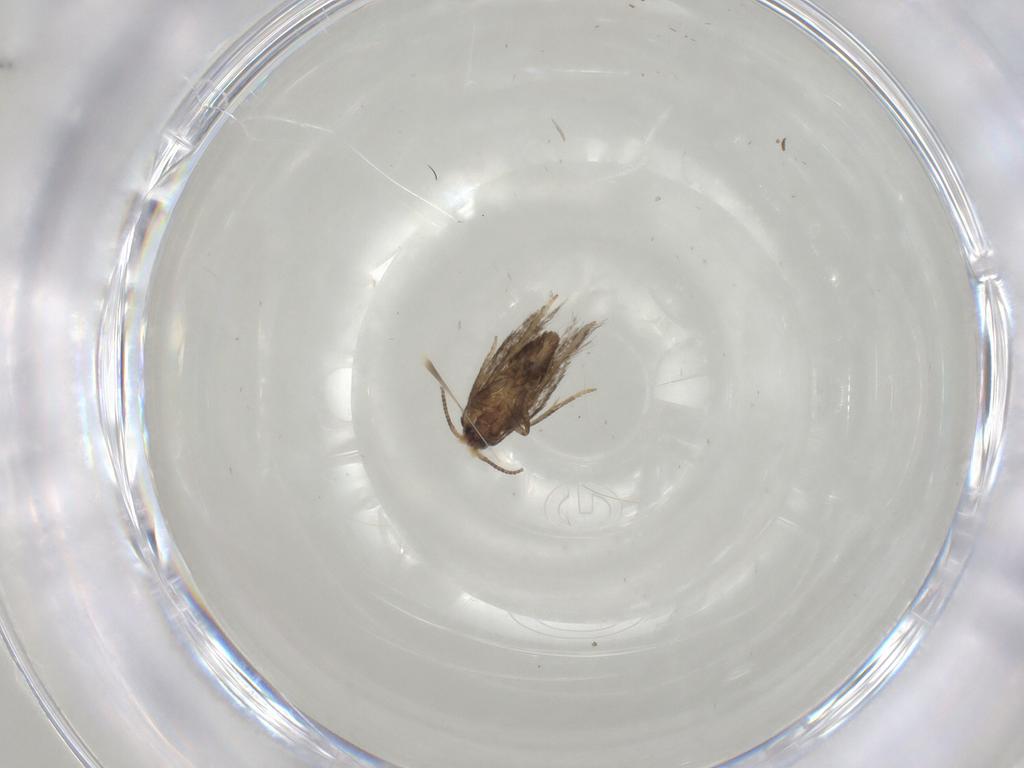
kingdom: Animalia
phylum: Arthropoda
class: Insecta
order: Lepidoptera
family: Nepticulidae
